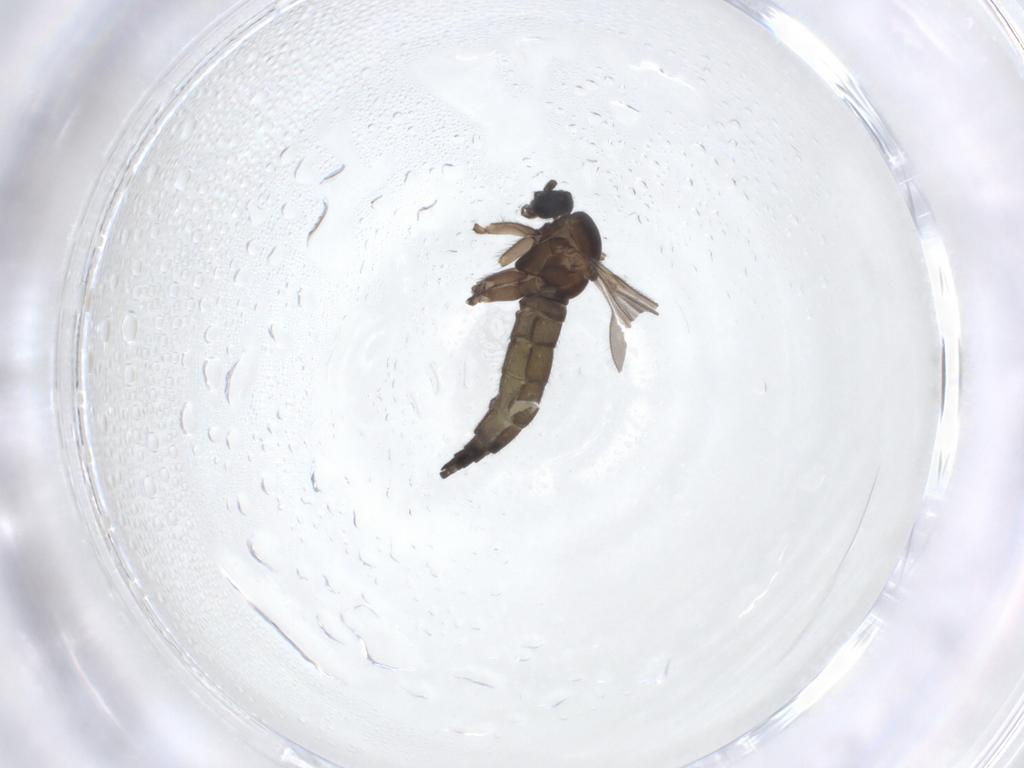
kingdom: Animalia
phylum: Arthropoda
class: Insecta
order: Diptera
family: Sciaridae
